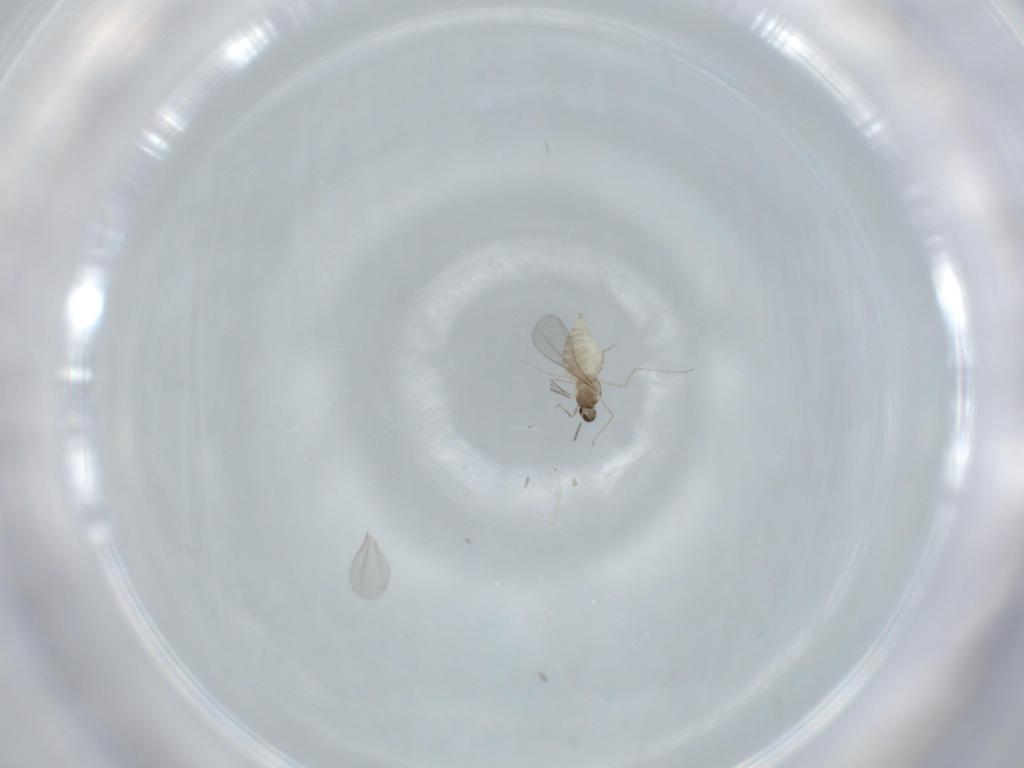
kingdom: Animalia
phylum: Arthropoda
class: Insecta
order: Diptera
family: Cecidomyiidae
